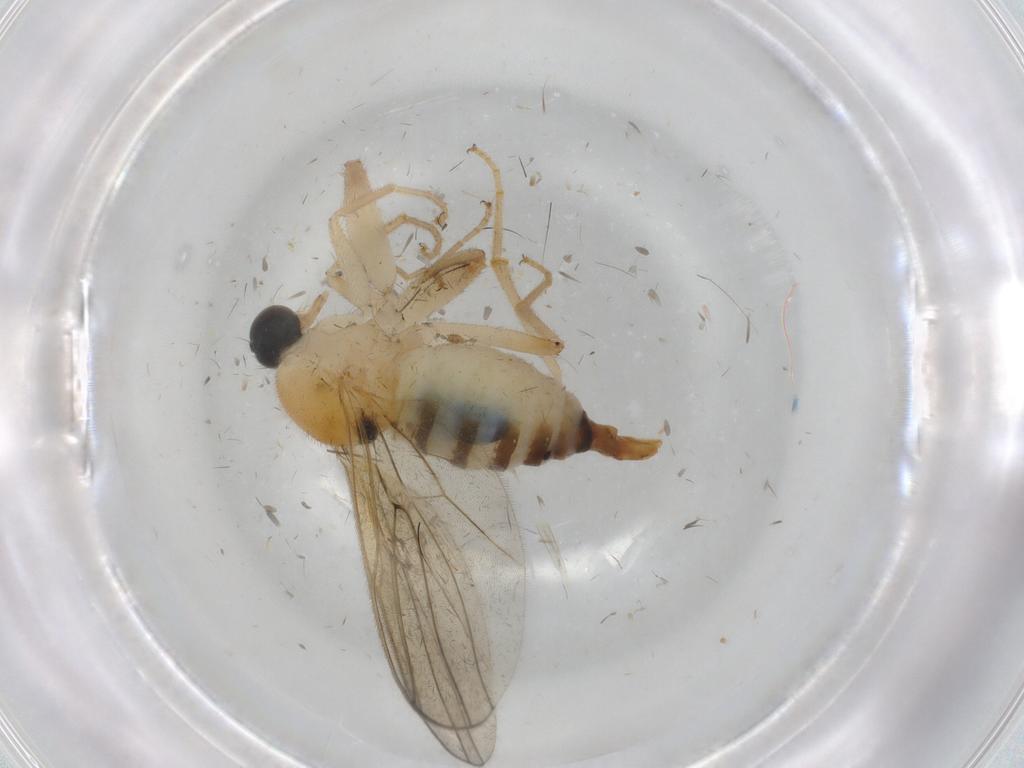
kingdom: Animalia
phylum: Arthropoda
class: Insecta
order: Diptera
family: Hybotidae
